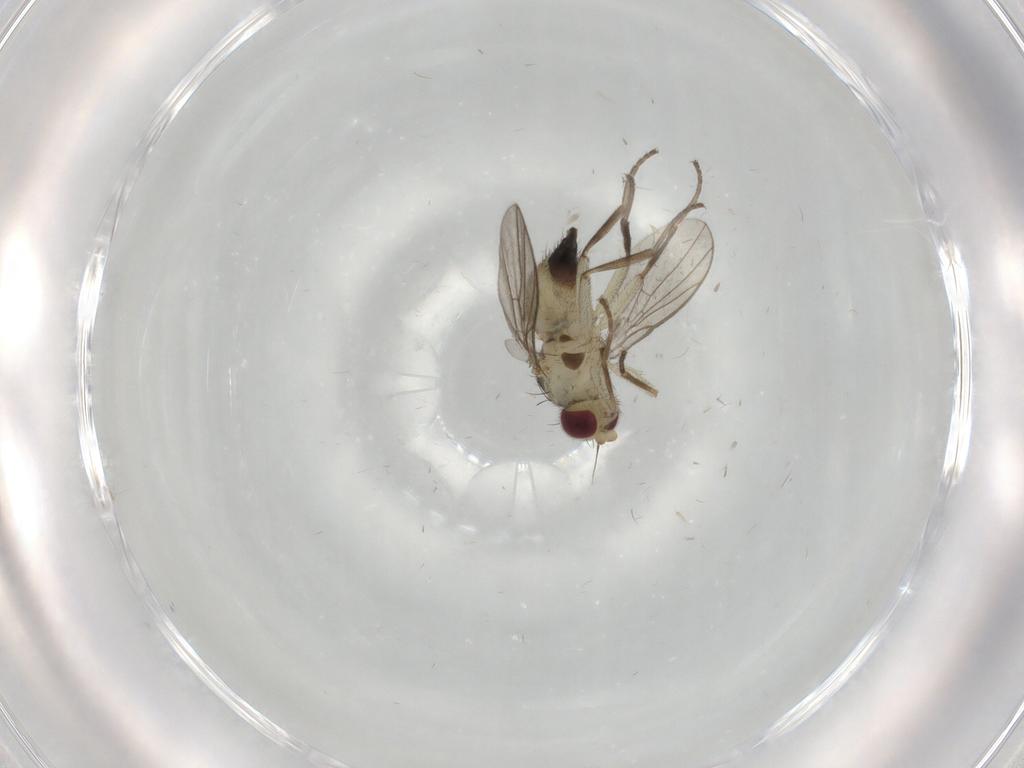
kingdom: Animalia
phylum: Arthropoda
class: Insecta
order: Diptera
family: Agromyzidae
